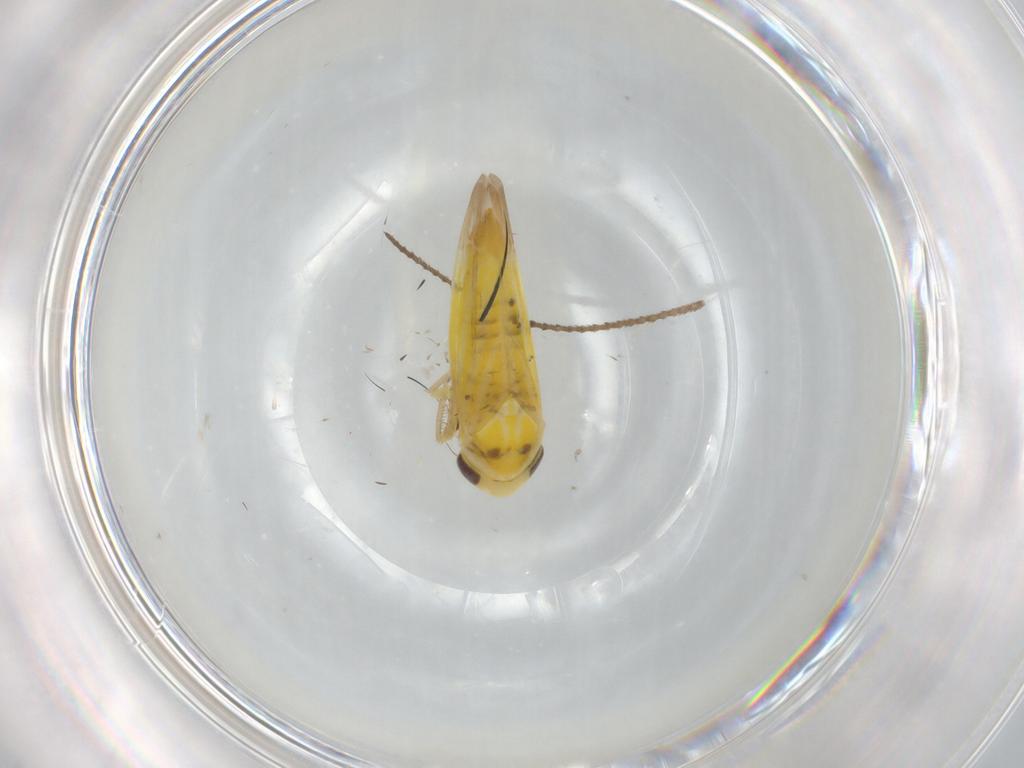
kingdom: Animalia
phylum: Arthropoda
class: Insecta
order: Hemiptera
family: Cicadellidae
